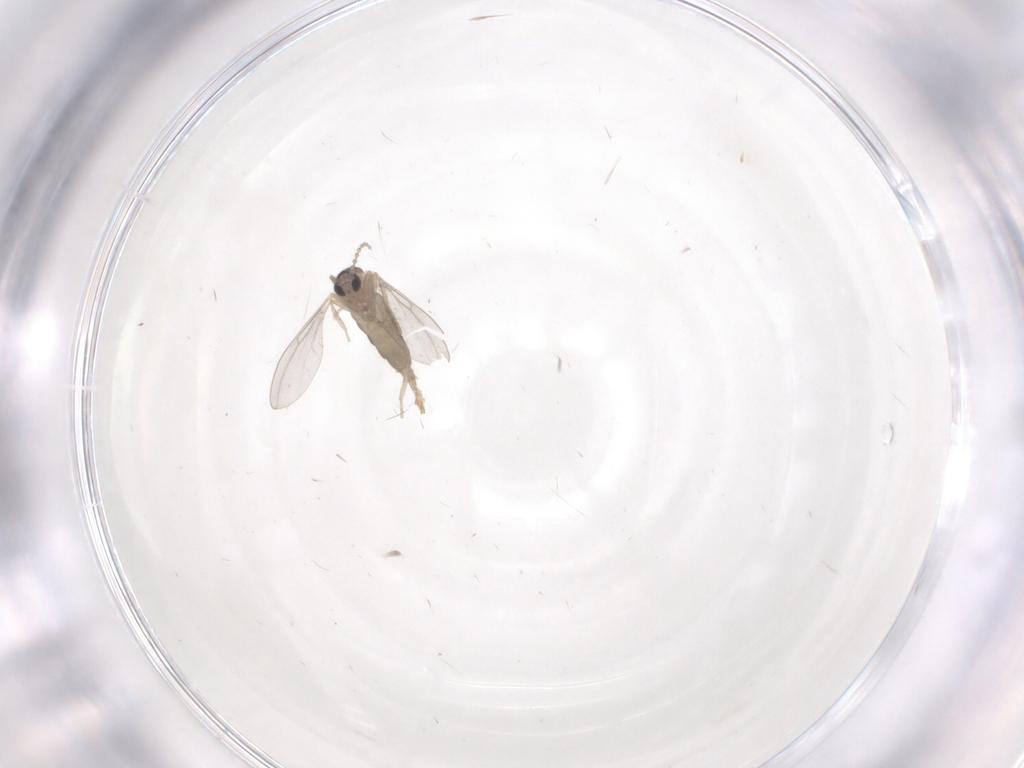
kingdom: Animalia
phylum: Arthropoda
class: Insecta
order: Diptera
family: Cecidomyiidae
